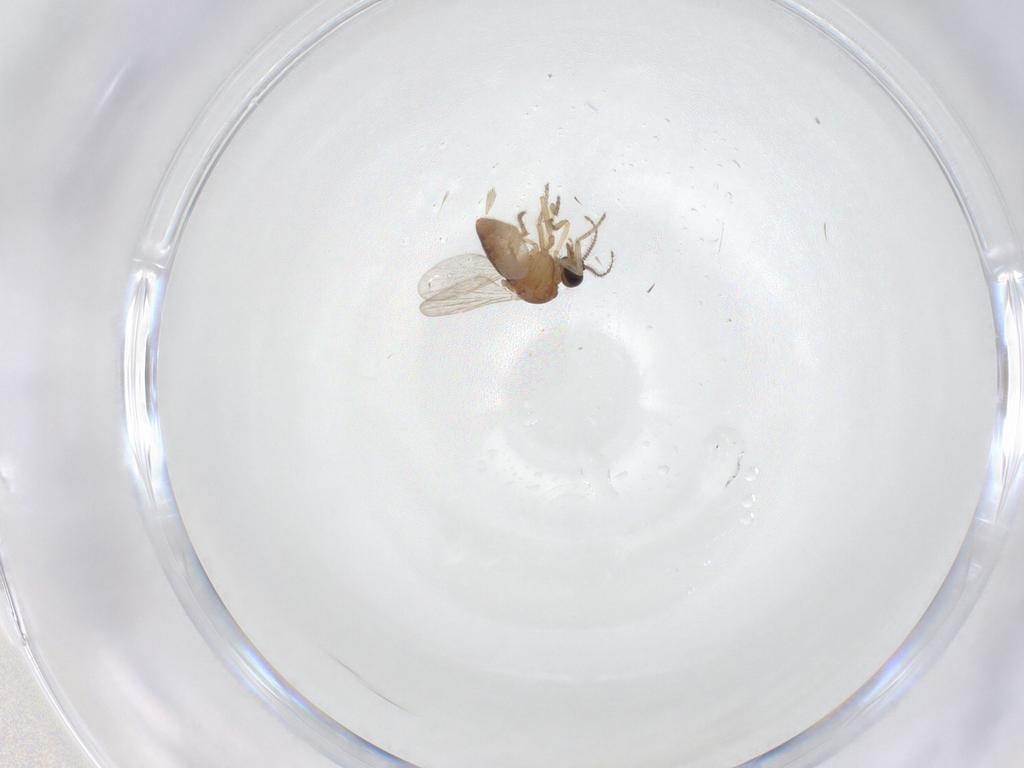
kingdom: Animalia
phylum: Arthropoda
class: Insecta
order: Diptera
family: Ceratopogonidae
